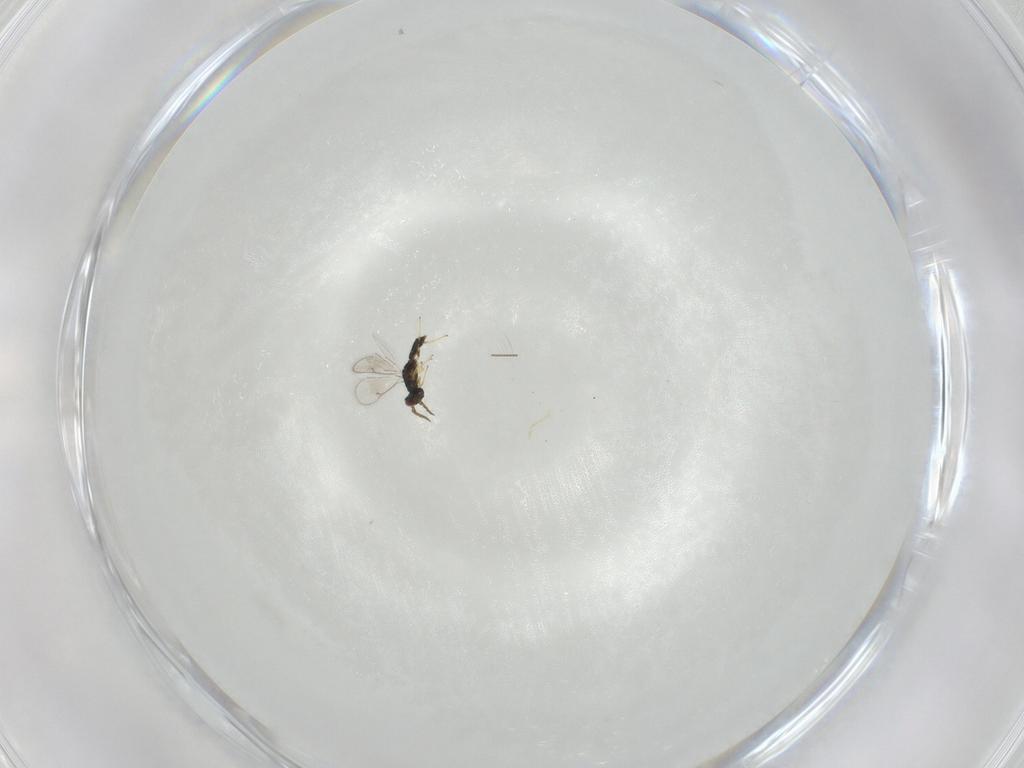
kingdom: Animalia
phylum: Arthropoda
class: Insecta
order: Hymenoptera
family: Eulophidae
